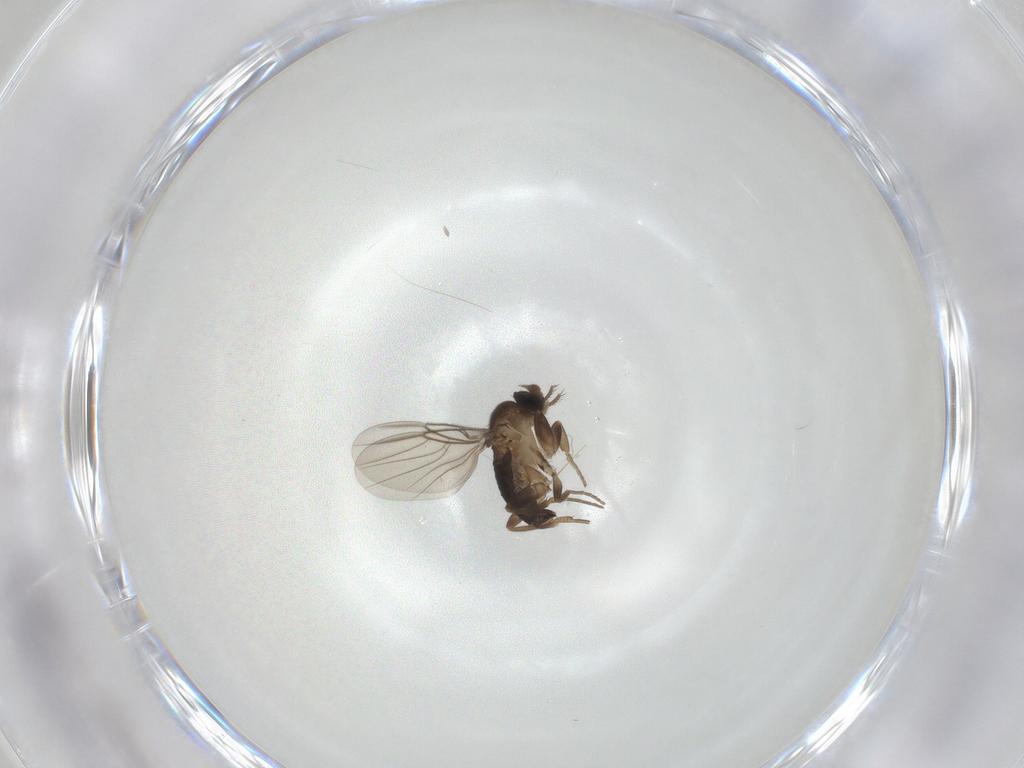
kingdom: Animalia
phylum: Arthropoda
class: Insecta
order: Diptera
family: Phoridae
